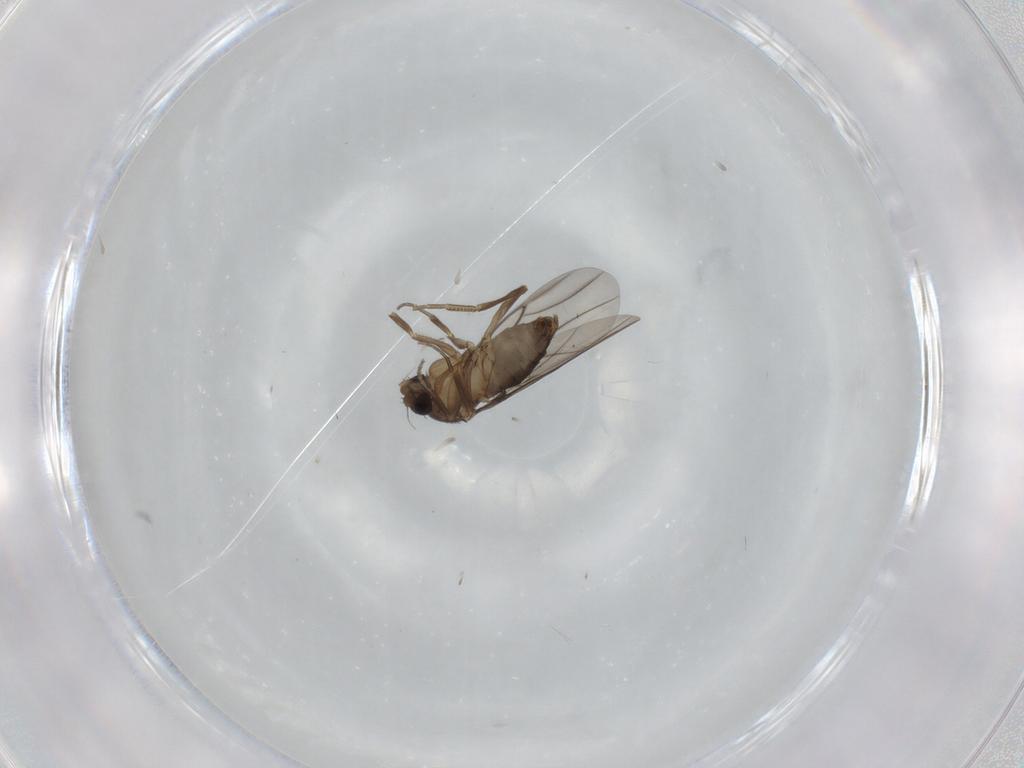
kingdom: Animalia
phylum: Arthropoda
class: Insecta
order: Diptera
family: Phoridae
